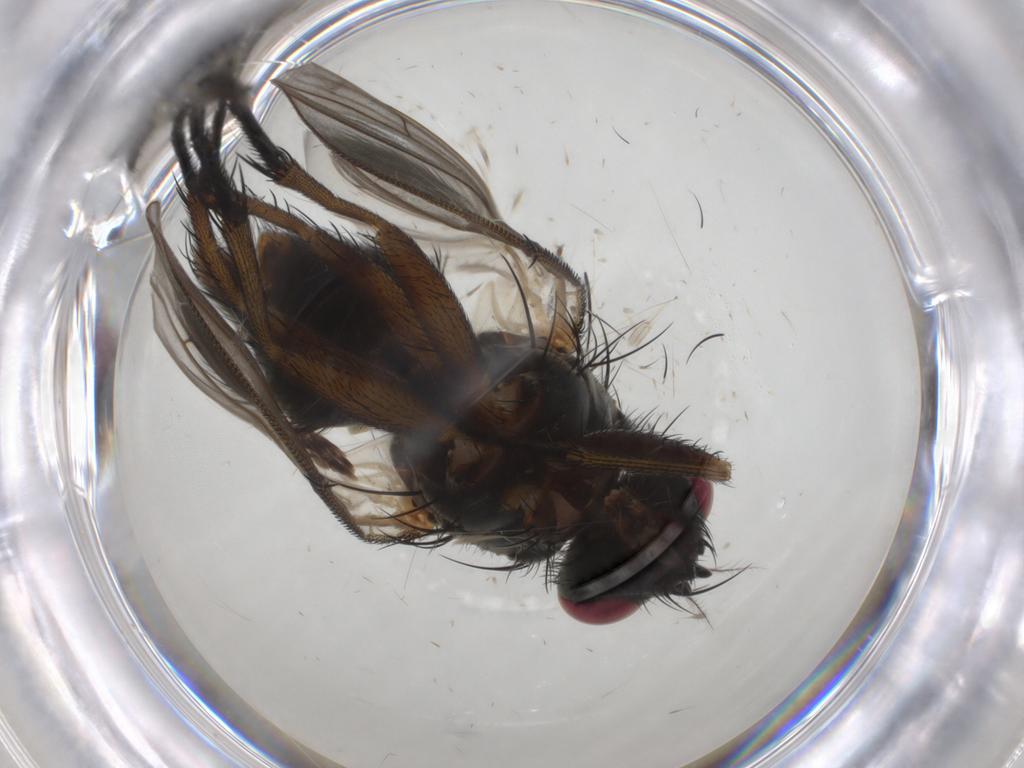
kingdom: Animalia
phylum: Arthropoda
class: Insecta
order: Diptera
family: Muscidae
